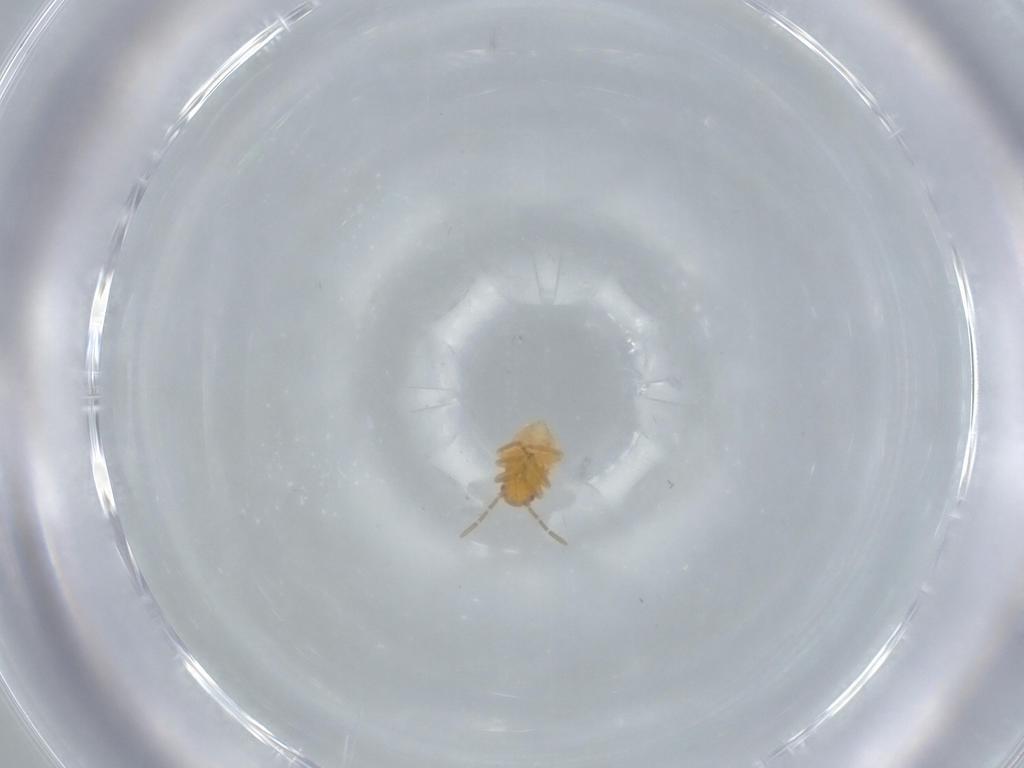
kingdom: Animalia
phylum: Arthropoda
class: Insecta
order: Hemiptera
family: Miridae
